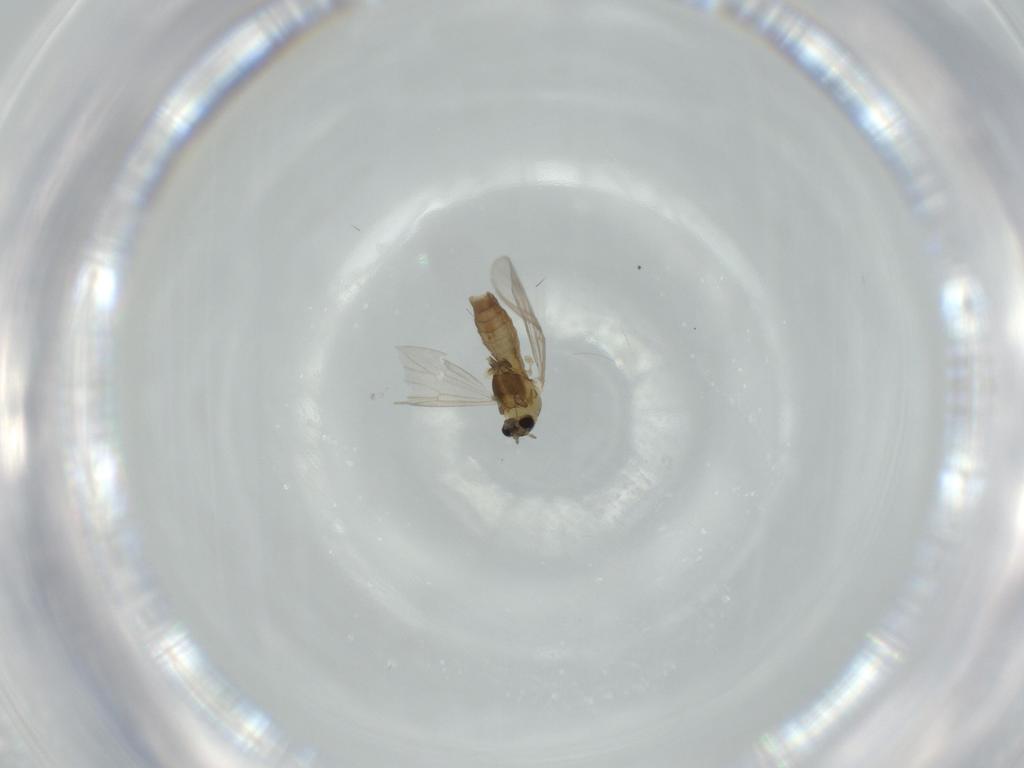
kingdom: Animalia
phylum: Arthropoda
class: Insecta
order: Diptera
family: Chironomidae
